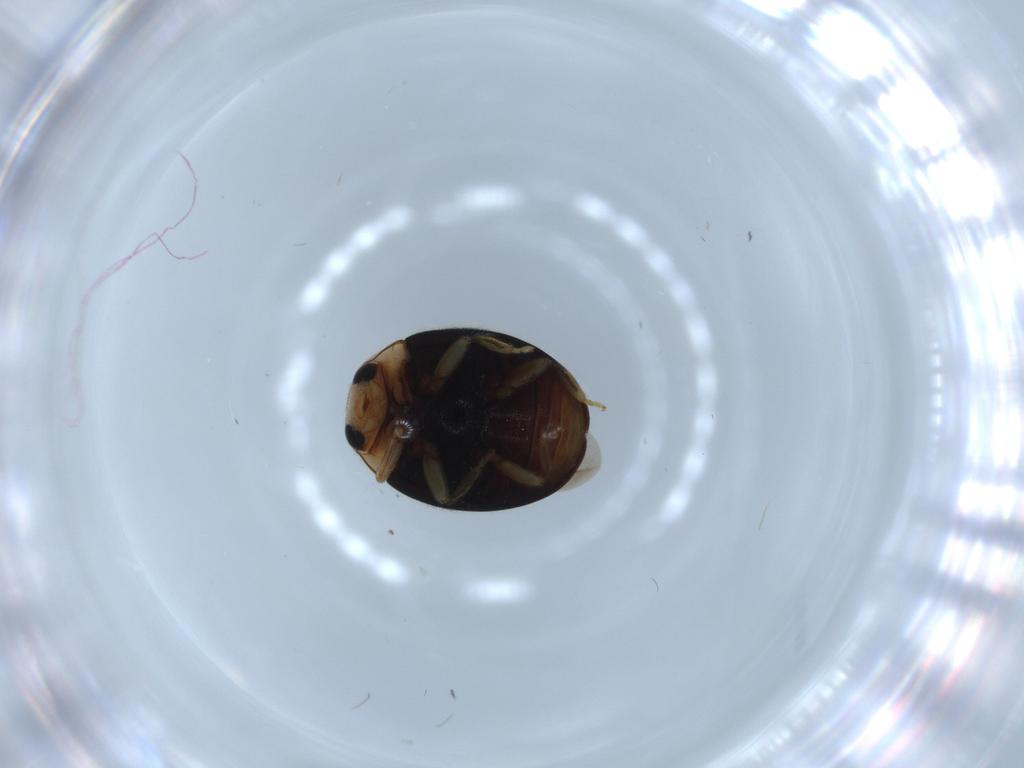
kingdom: Animalia
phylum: Arthropoda
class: Insecta
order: Coleoptera
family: Coccinellidae
